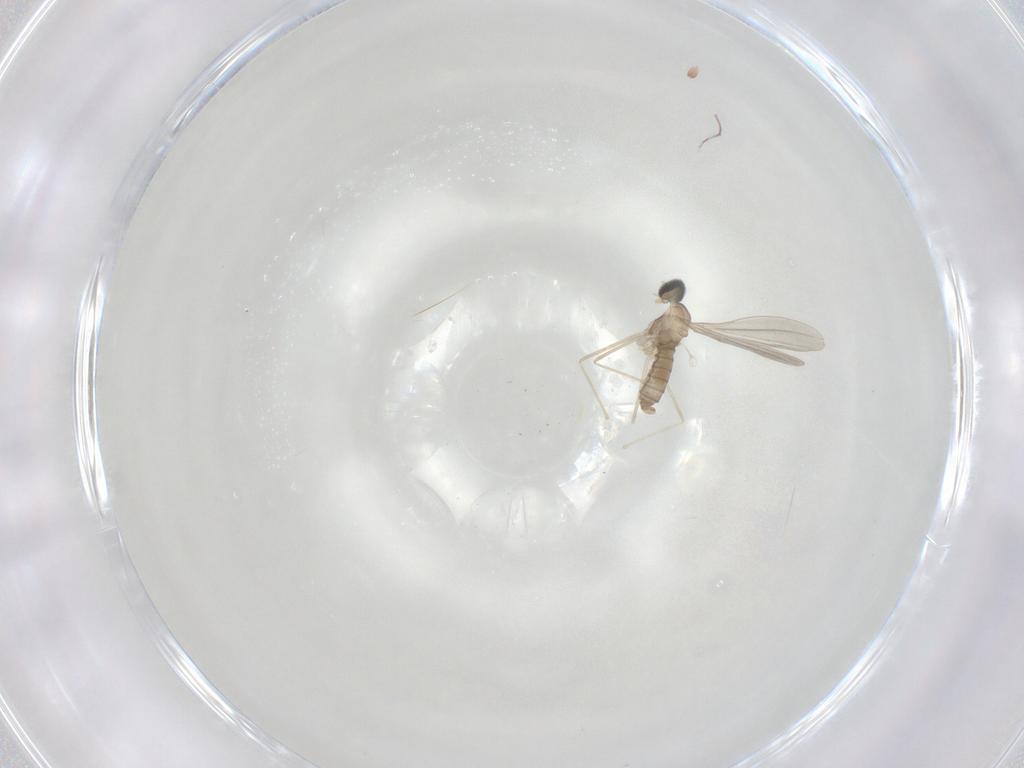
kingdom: Animalia
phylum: Arthropoda
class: Insecta
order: Diptera
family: Cecidomyiidae
